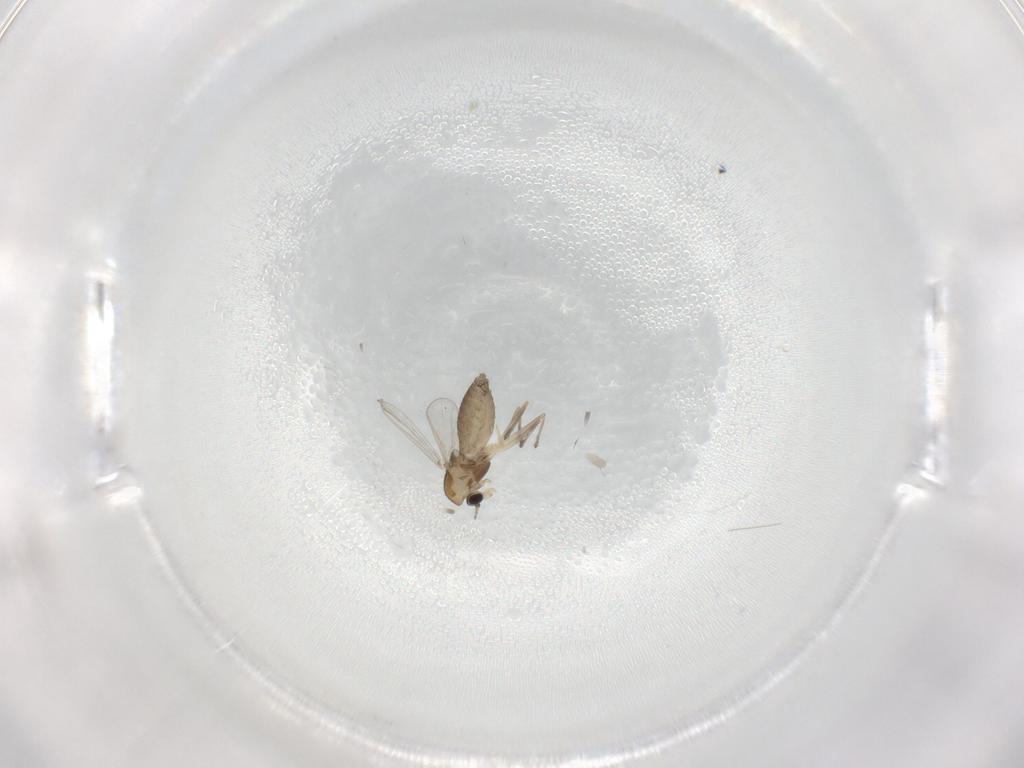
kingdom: Animalia
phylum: Arthropoda
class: Insecta
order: Diptera
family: Chironomidae
